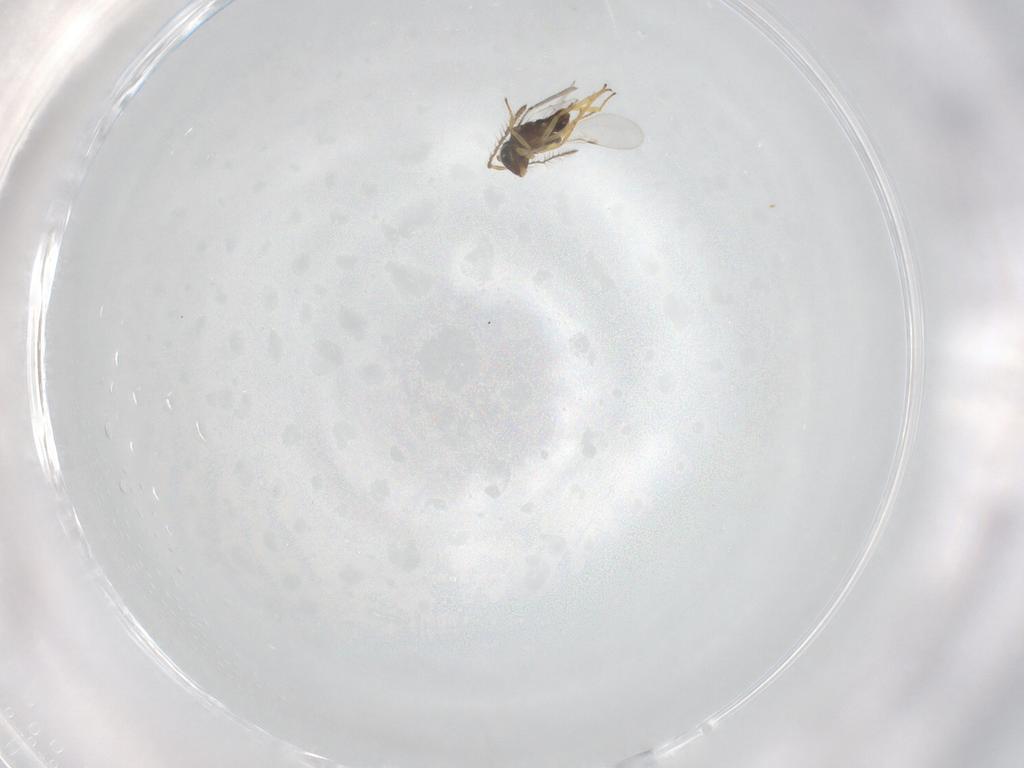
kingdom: Animalia
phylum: Arthropoda
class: Insecta
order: Hymenoptera
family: Encyrtidae
